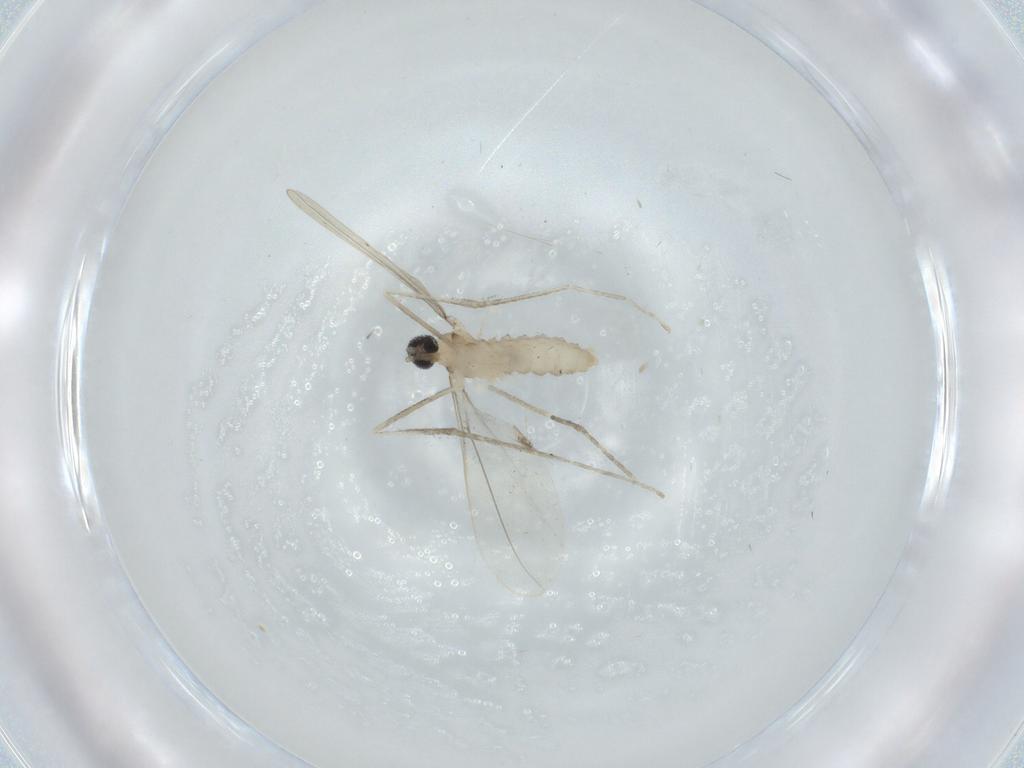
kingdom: Animalia
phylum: Arthropoda
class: Insecta
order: Diptera
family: Cecidomyiidae
